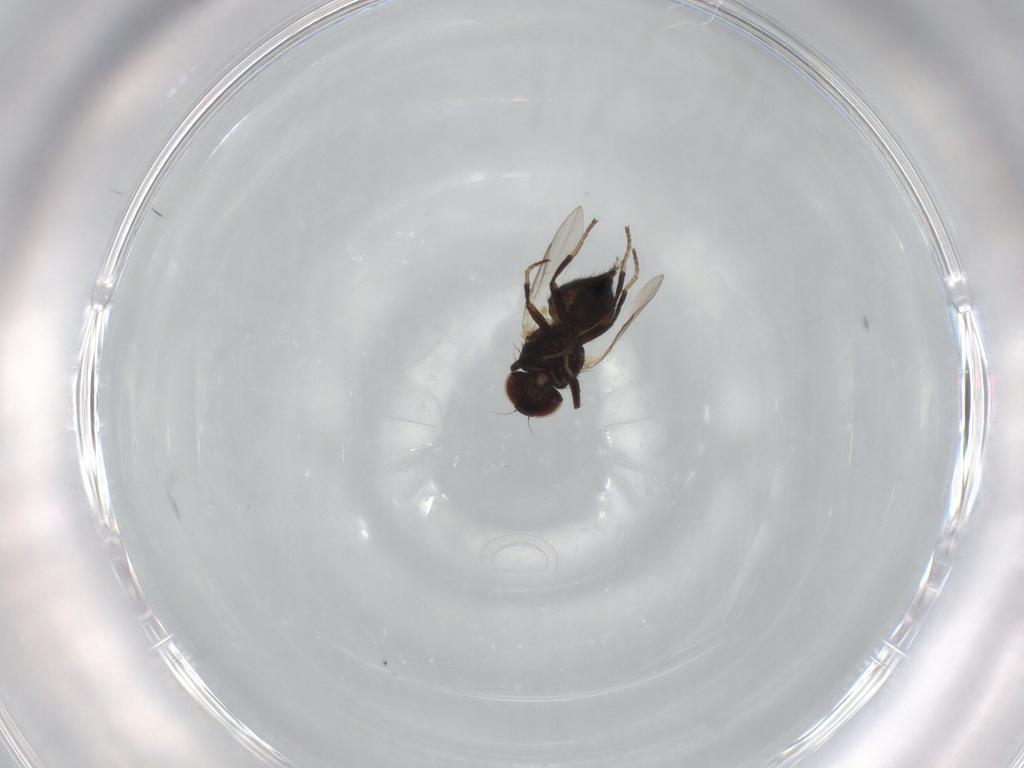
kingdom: Animalia
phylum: Arthropoda
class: Insecta
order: Diptera
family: Agromyzidae
